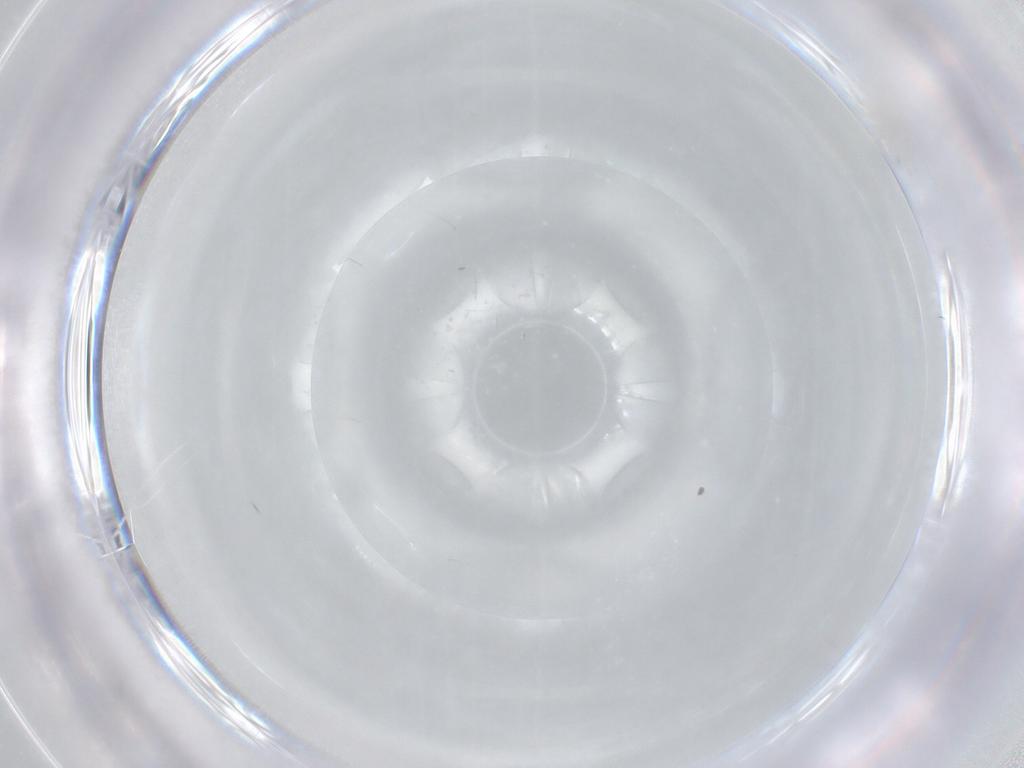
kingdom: Animalia
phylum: Arthropoda
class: Insecta
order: Diptera
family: Cecidomyiidae
